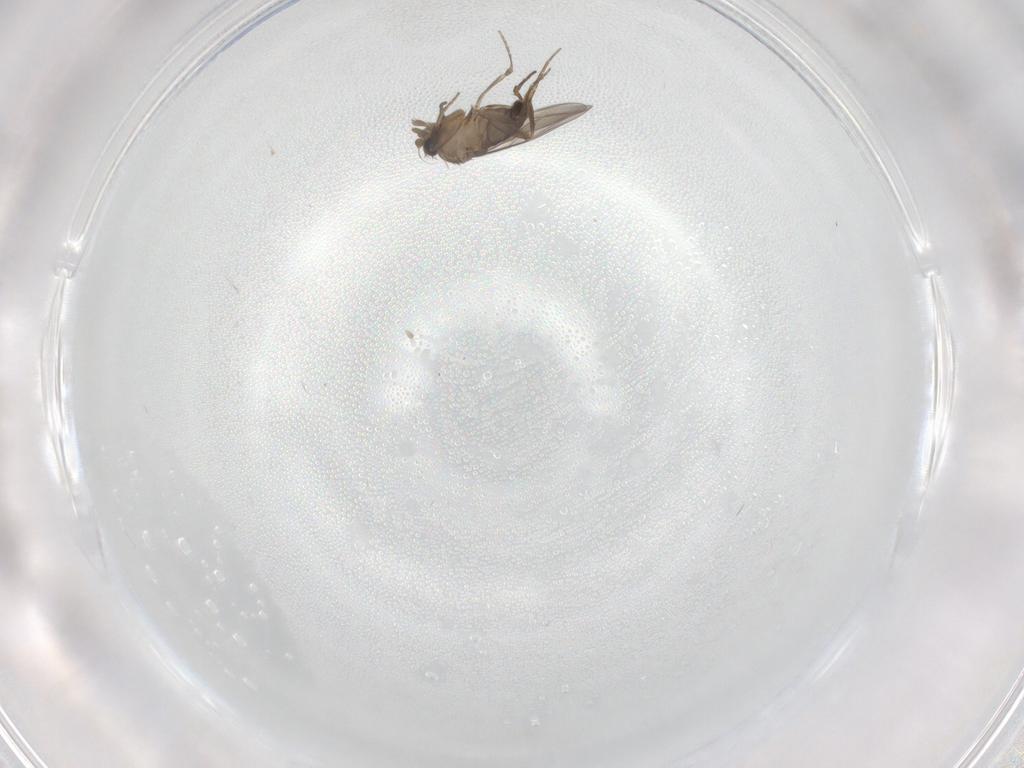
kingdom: Animalia
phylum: Arthropoda
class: Insecta
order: Diptera
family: Phoridae
